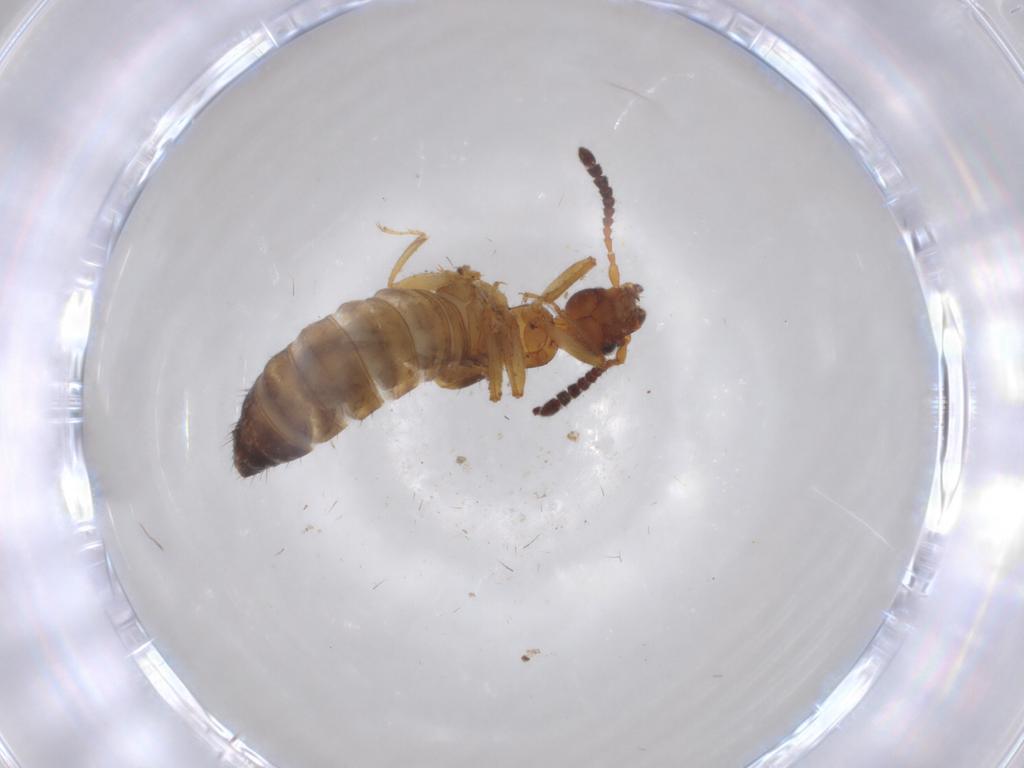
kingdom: Animalia
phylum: Arthropoda
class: Insecta
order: Coleoptera
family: Staphylinidae
